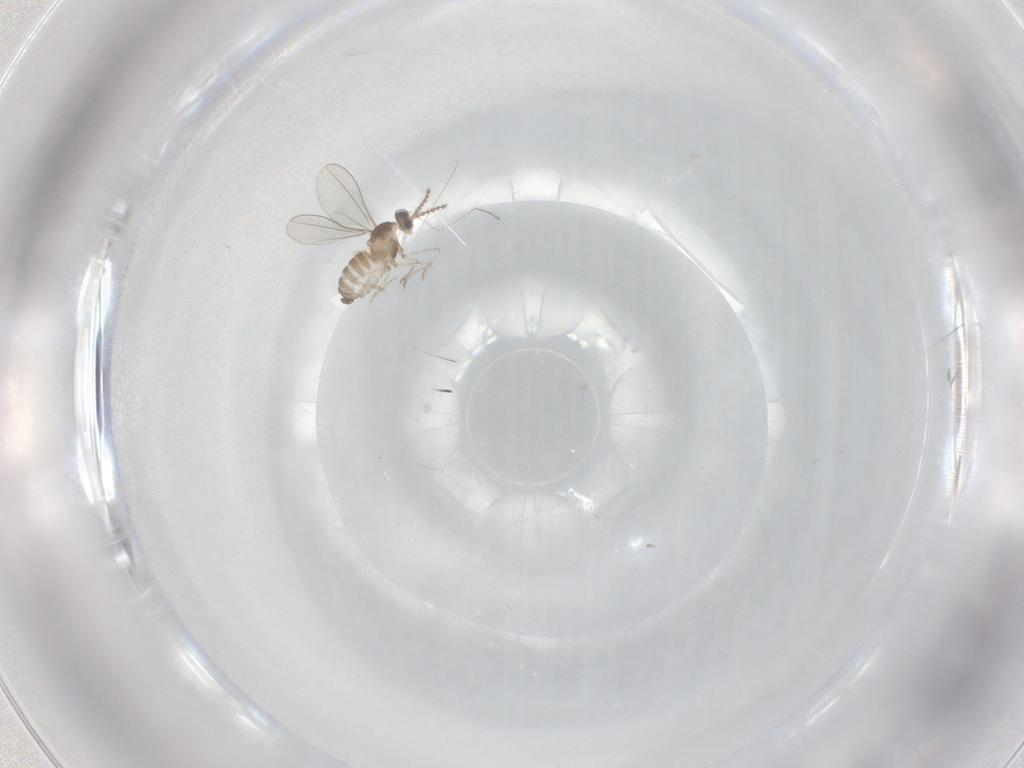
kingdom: Animalia
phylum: Arthropoda
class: Insecta
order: Diptera
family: Cecidomyiidae
